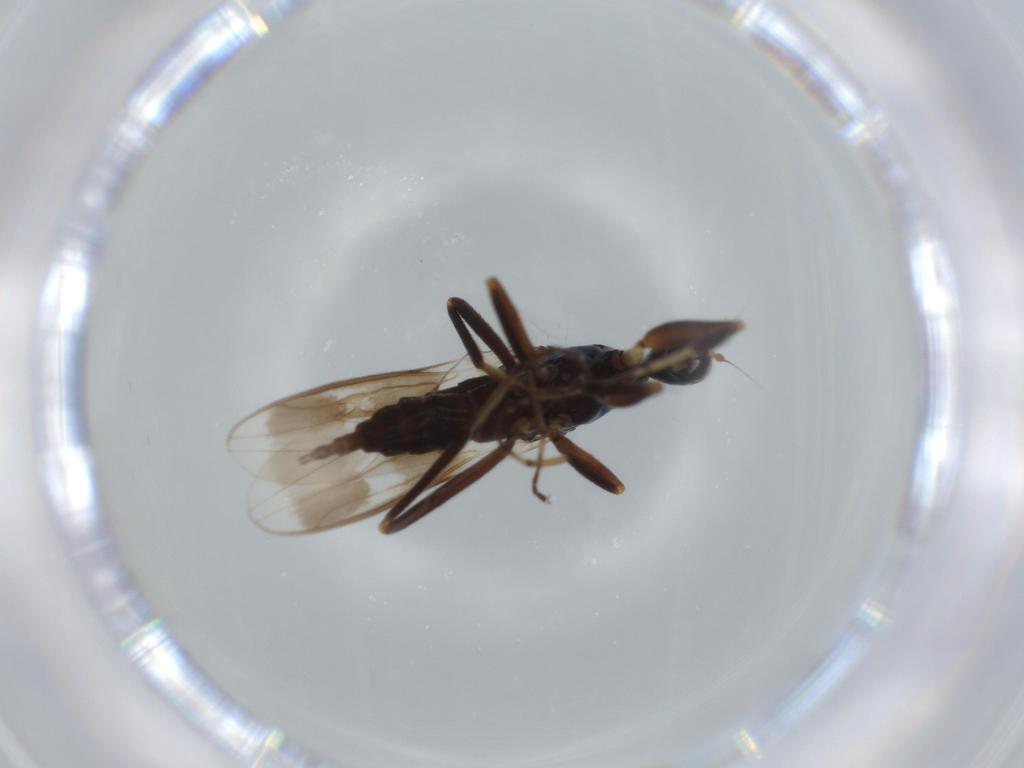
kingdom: Animalia
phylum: Arthropoda
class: Insecta
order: Diptera
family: Hybotidae
